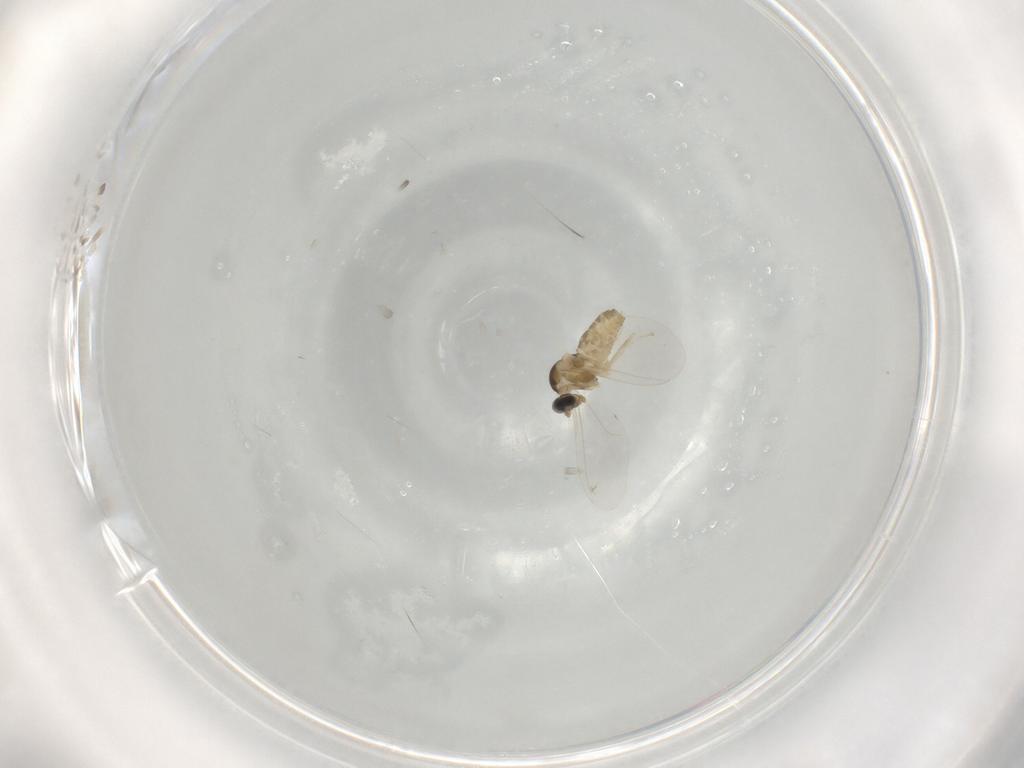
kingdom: Animalia
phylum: Arthropoda
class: Insecta
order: Diptera
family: Cecidomyiidae
